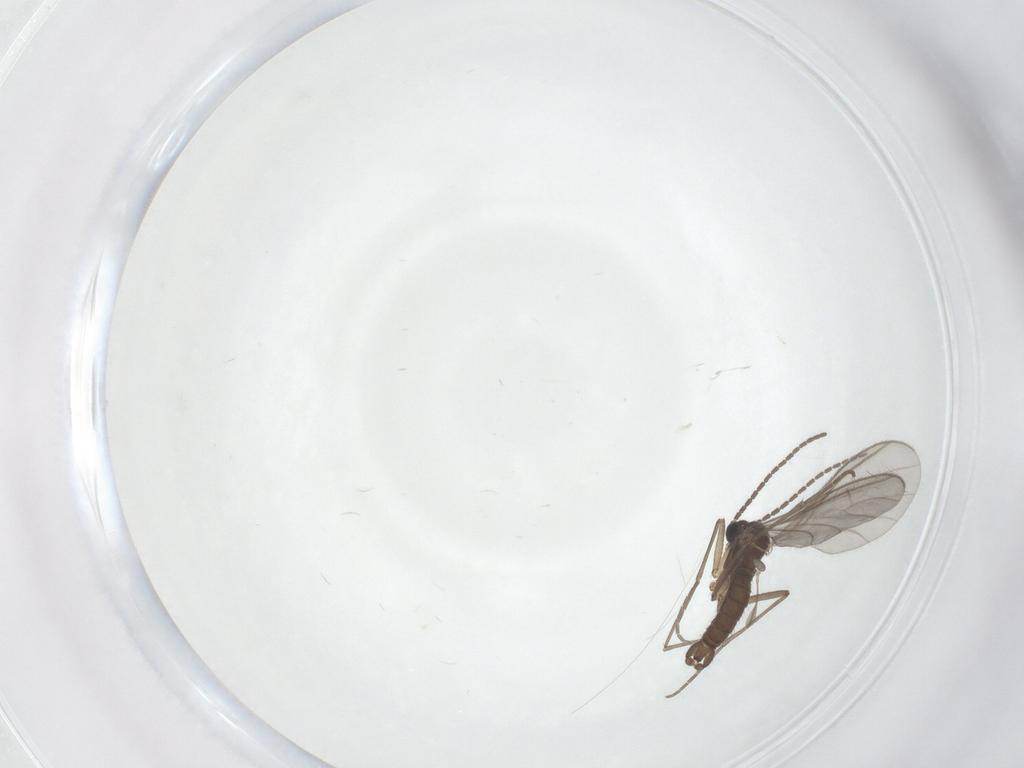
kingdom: Animalia
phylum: Arthropoda
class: Insecta
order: Diptera
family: Sciaridae
